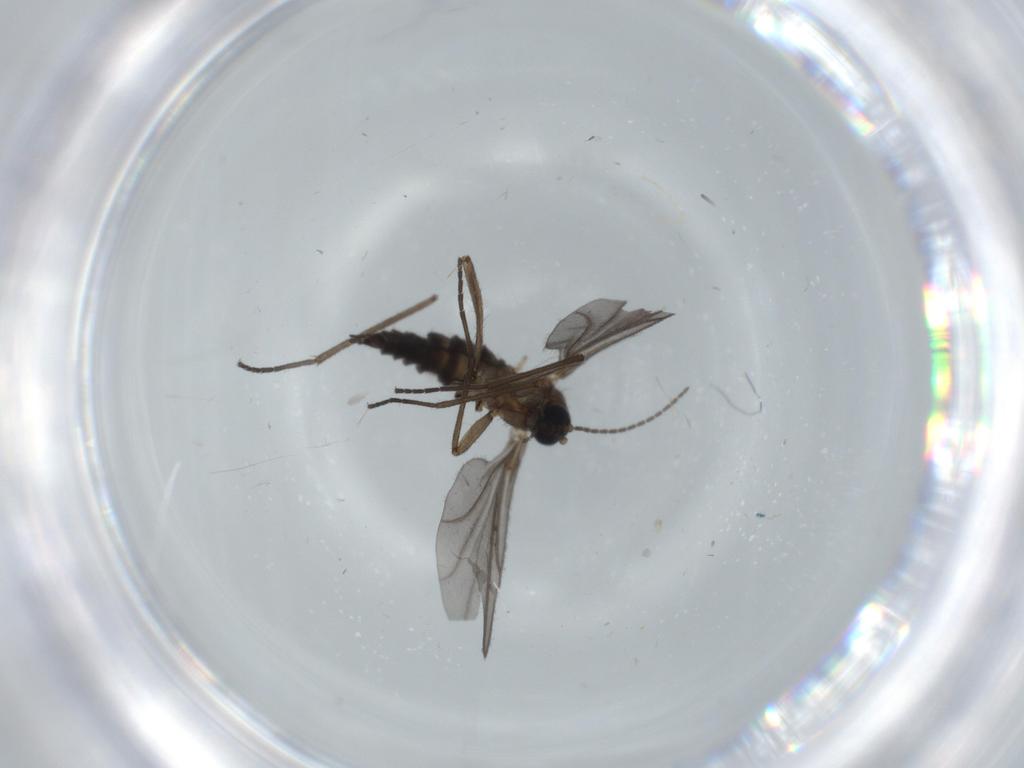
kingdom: Animalia
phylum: Arthropoda
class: Insecta
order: Diptera
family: Sciaridae
